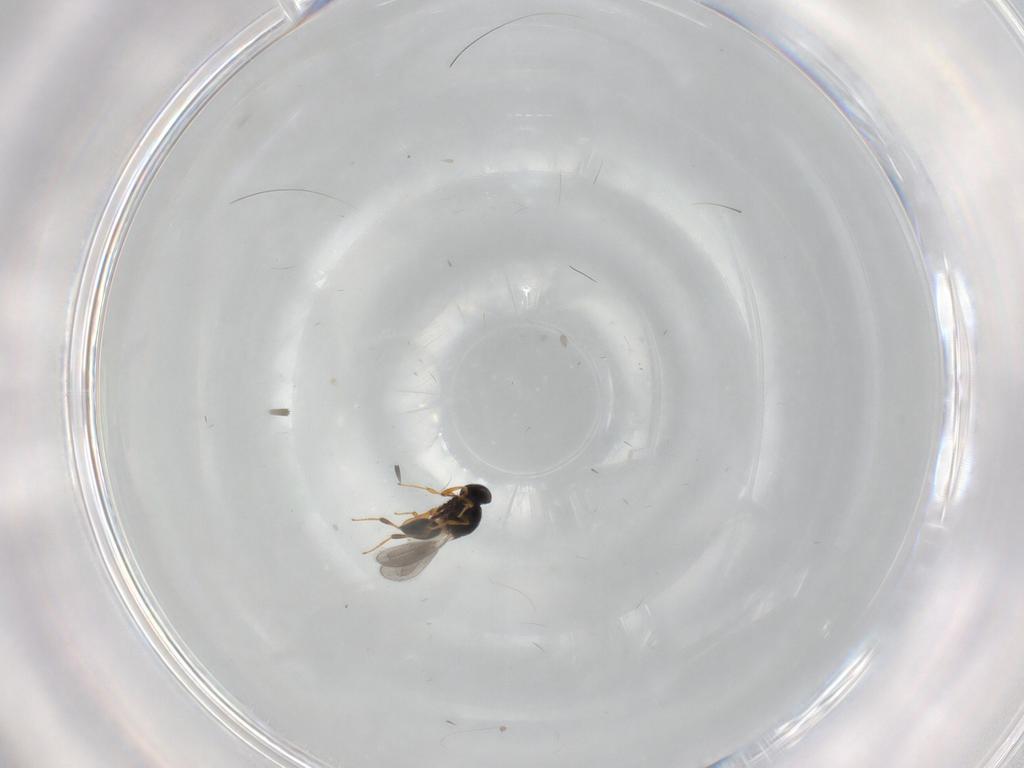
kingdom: Animalia
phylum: Arthropoda
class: Insecta
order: Hymenoptera
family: Platygastridae
